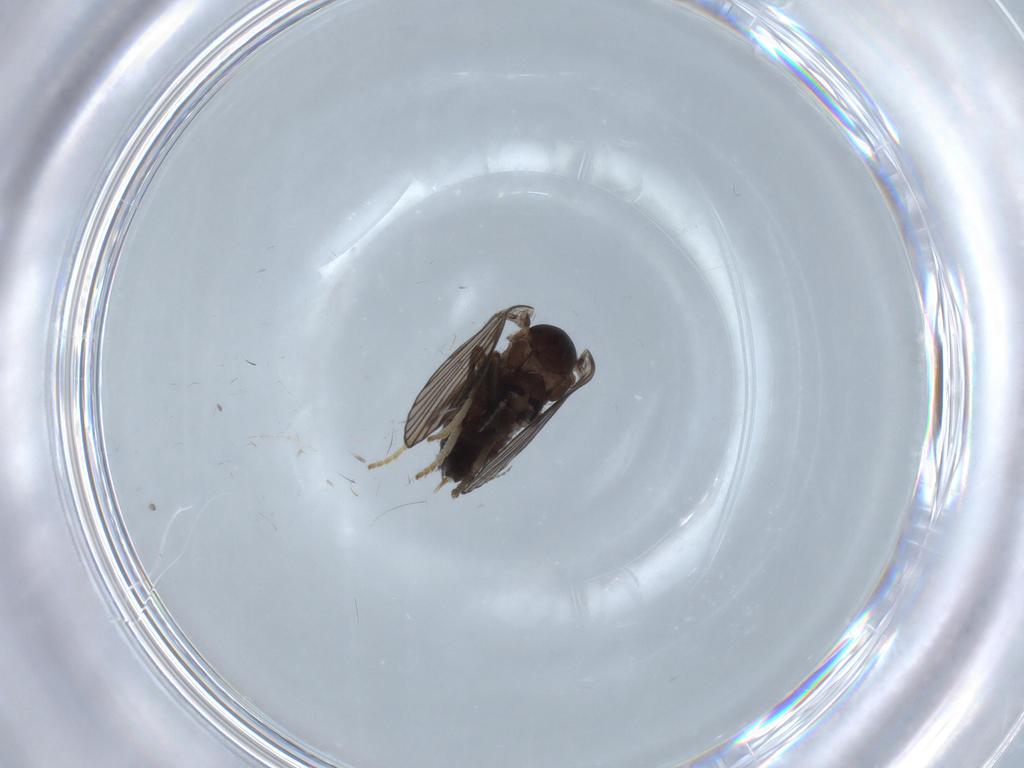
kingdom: Animalia
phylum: Arthropoda
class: Insecta
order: Diptera
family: Psychodidae
